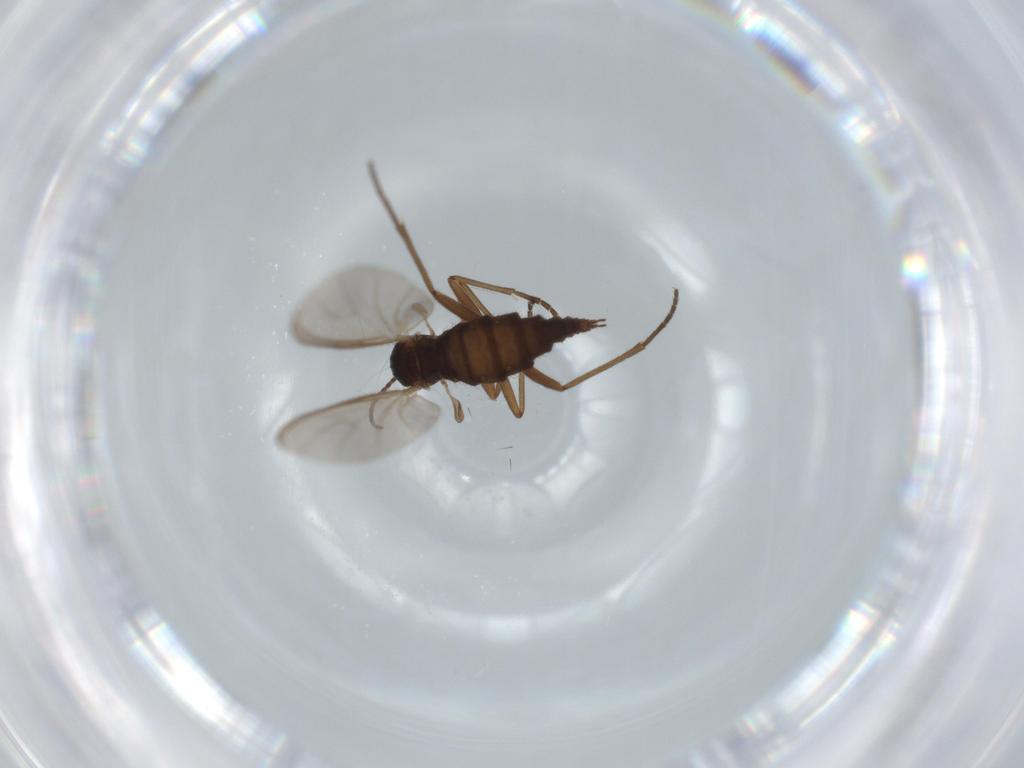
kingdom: Animalia
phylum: Arthropoda
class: Insecta
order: Diptera
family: Sciaridae
